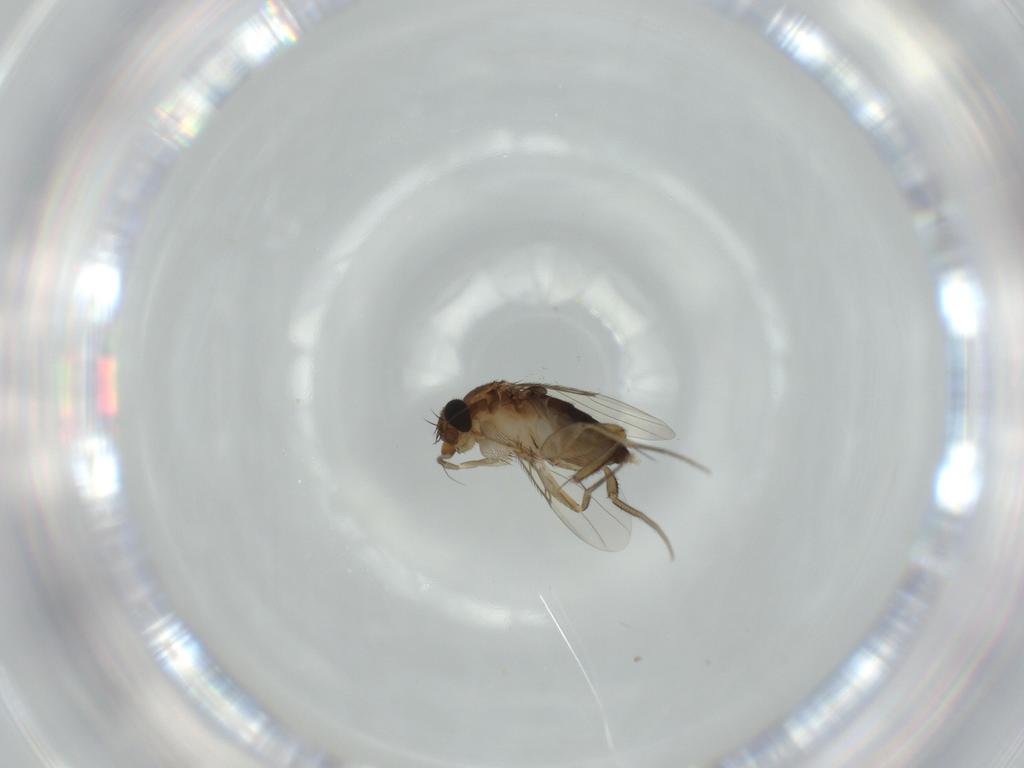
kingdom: Animalia
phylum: Arthropoda
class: Insecta
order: Diptera
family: Phoridae
